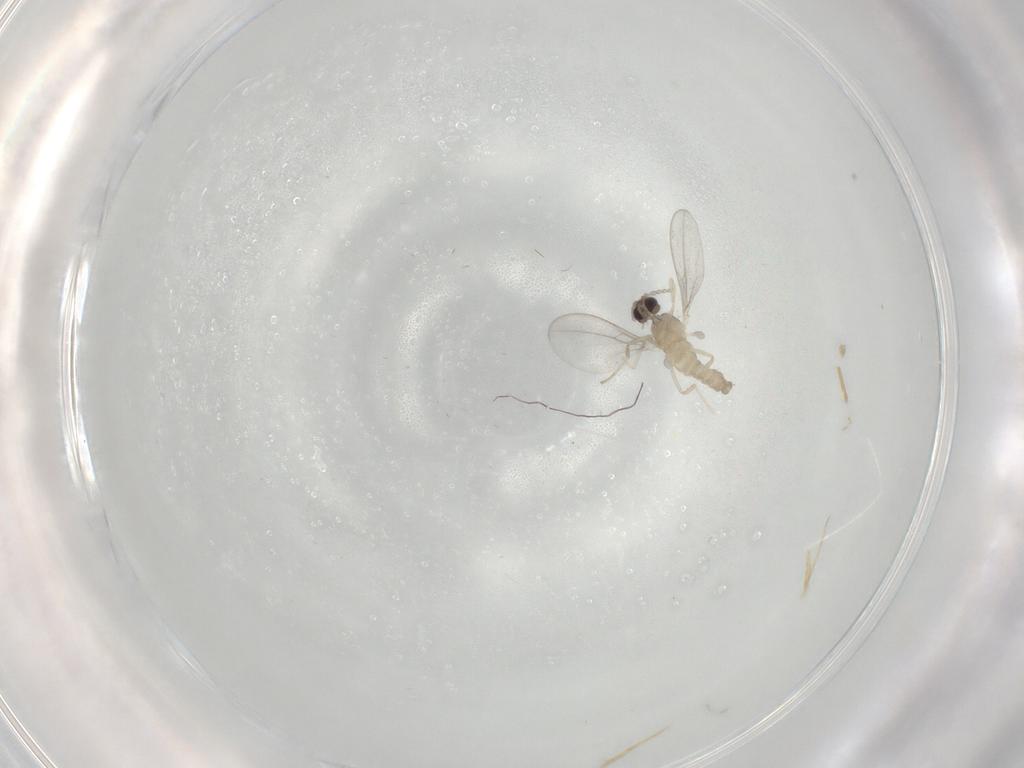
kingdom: Animalia
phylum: Arthropoda
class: Insecta
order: Diptera
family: Cecidomyiidae
